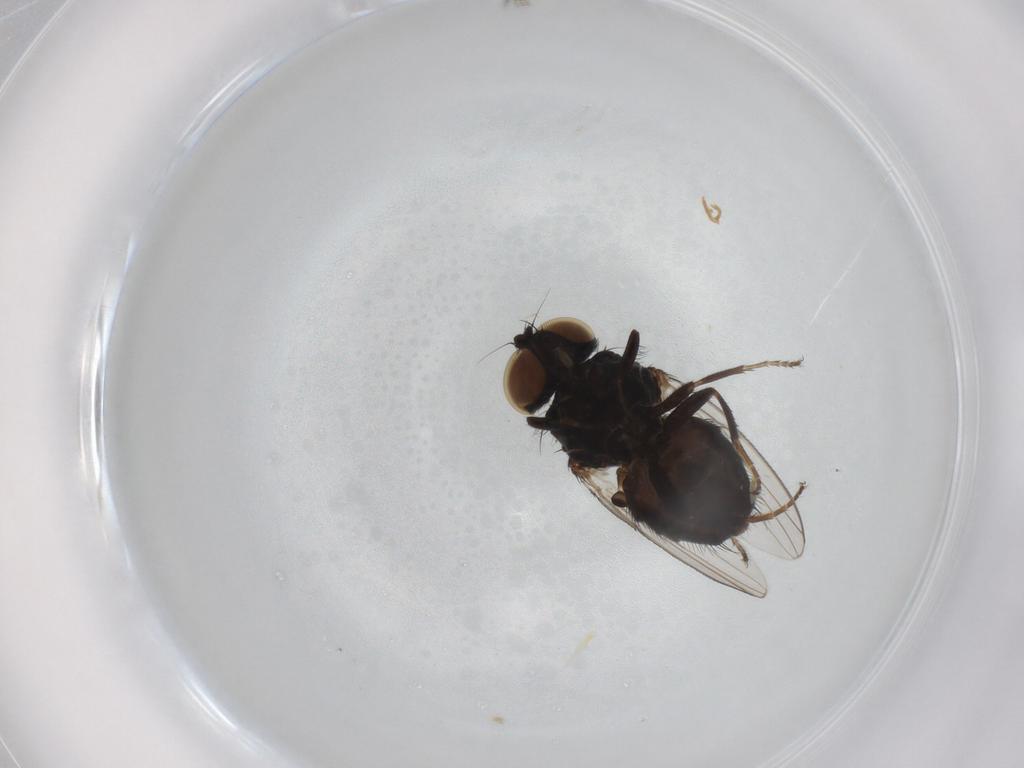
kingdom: Animalia
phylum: Arthropoda
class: Insecta
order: Diptera
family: Milichiidae
